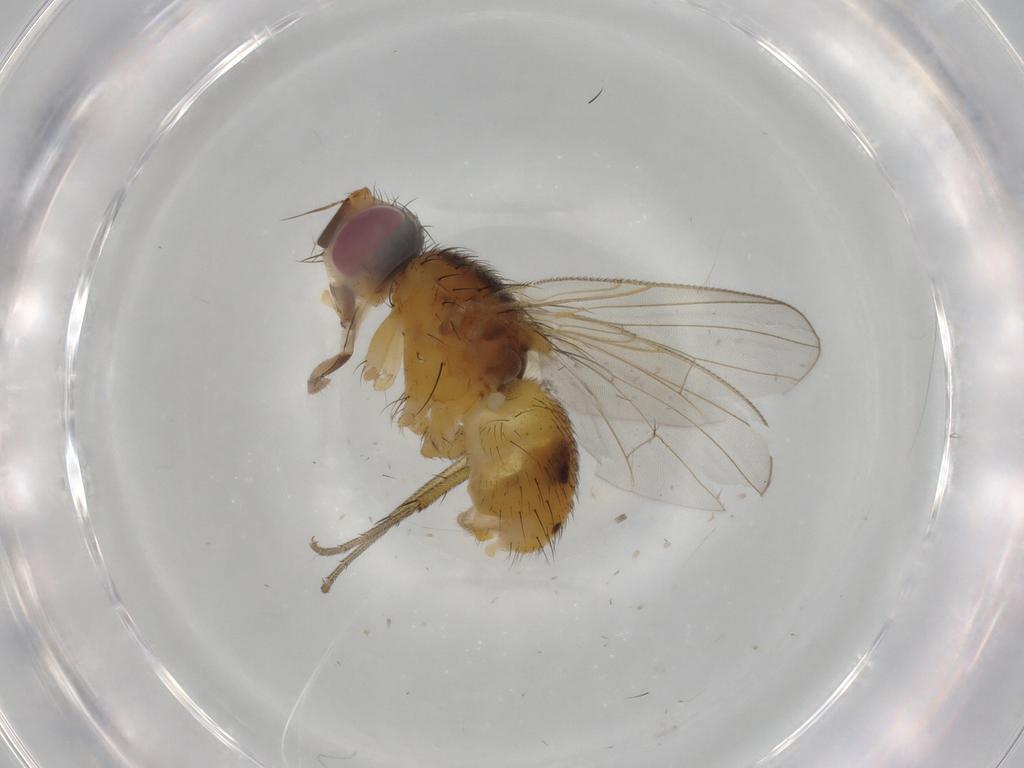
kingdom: Animalia
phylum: Arthropoda
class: Insecta
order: Diptera
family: Muscidae
